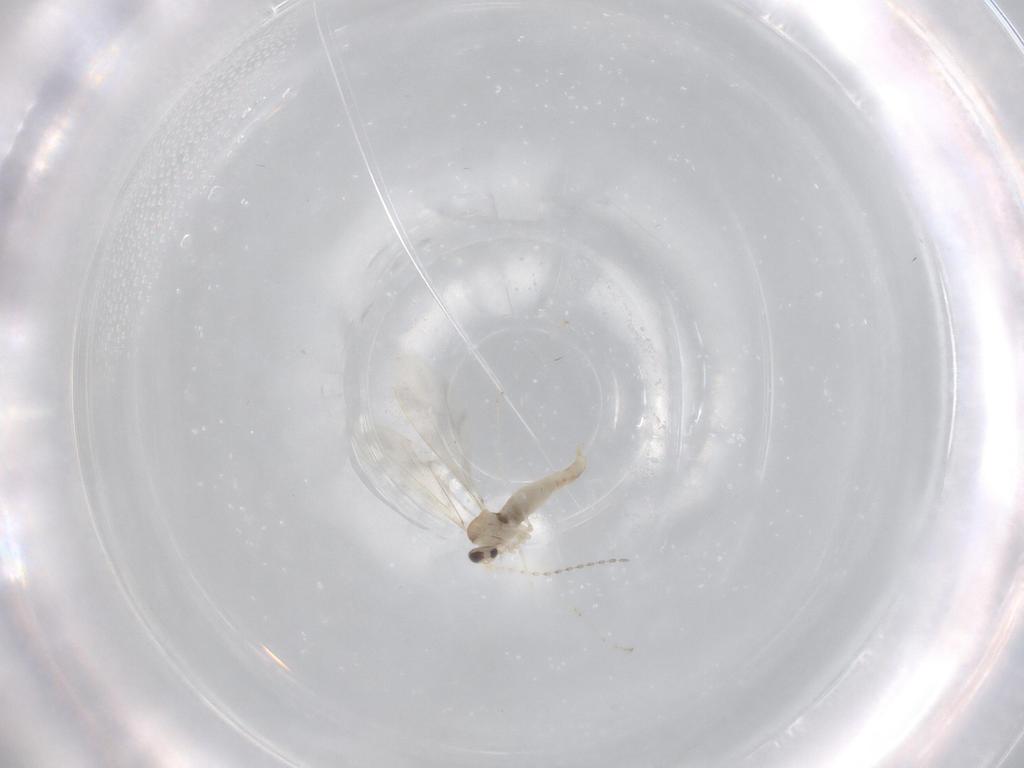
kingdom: Animalia
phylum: Arthropoda
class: Insecta
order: Diptera
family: Cecidomyiidae
